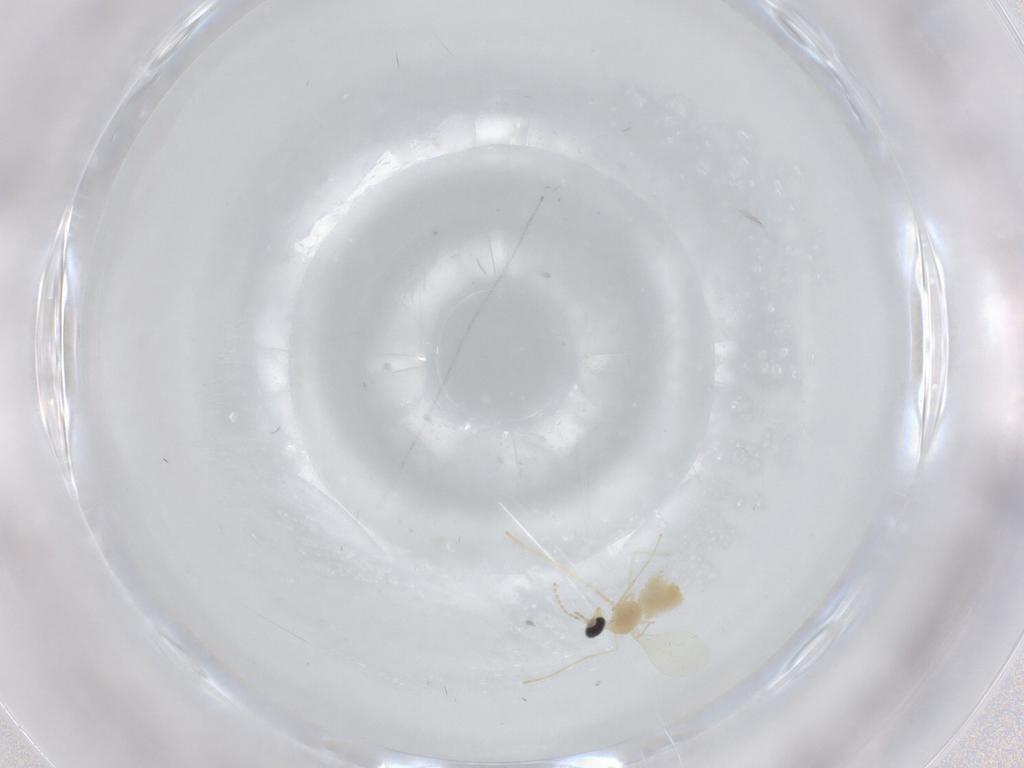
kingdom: Animalia
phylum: Arthropoda
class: Insecta
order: Diptera
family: Cecidomyiidae
